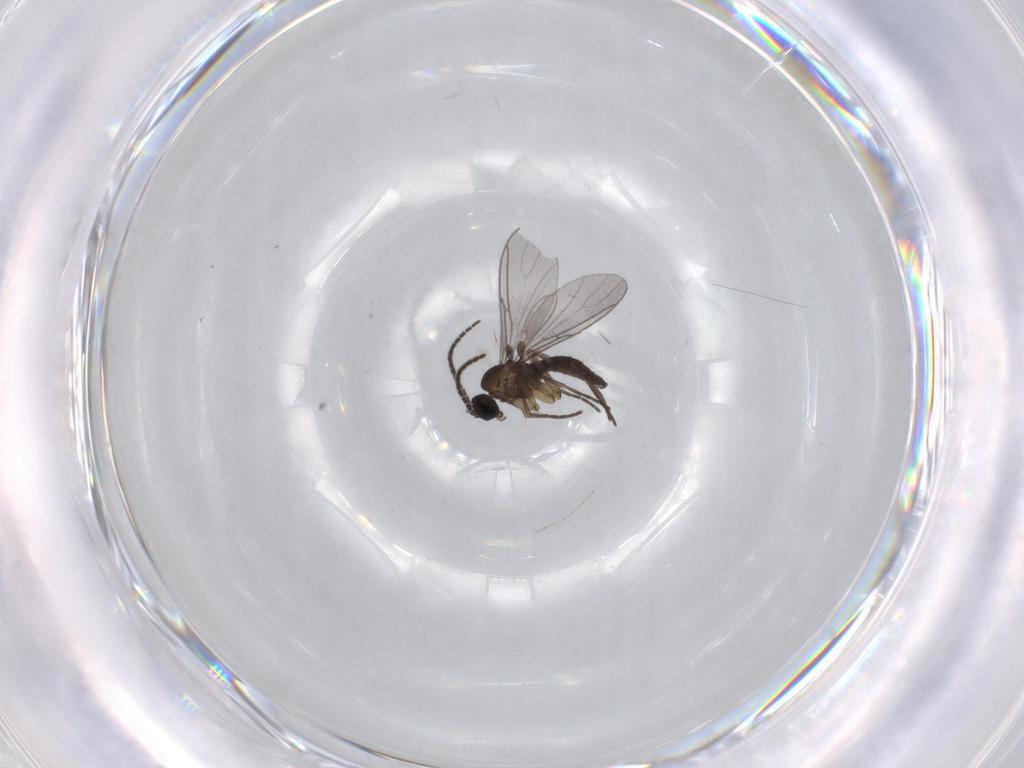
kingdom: Animalia
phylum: Arthropoda
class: Insecta
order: Diptera
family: Sciaridae
